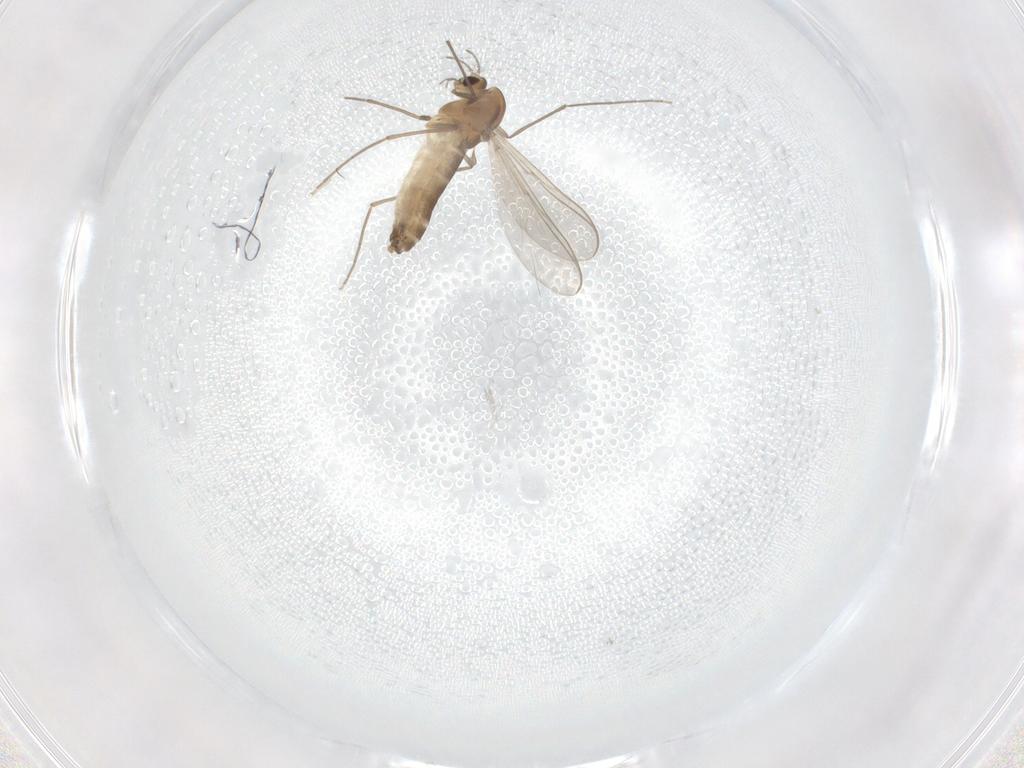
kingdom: Animalia
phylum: Arthropoda
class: Insecta
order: Diptera
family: Chironomidae
